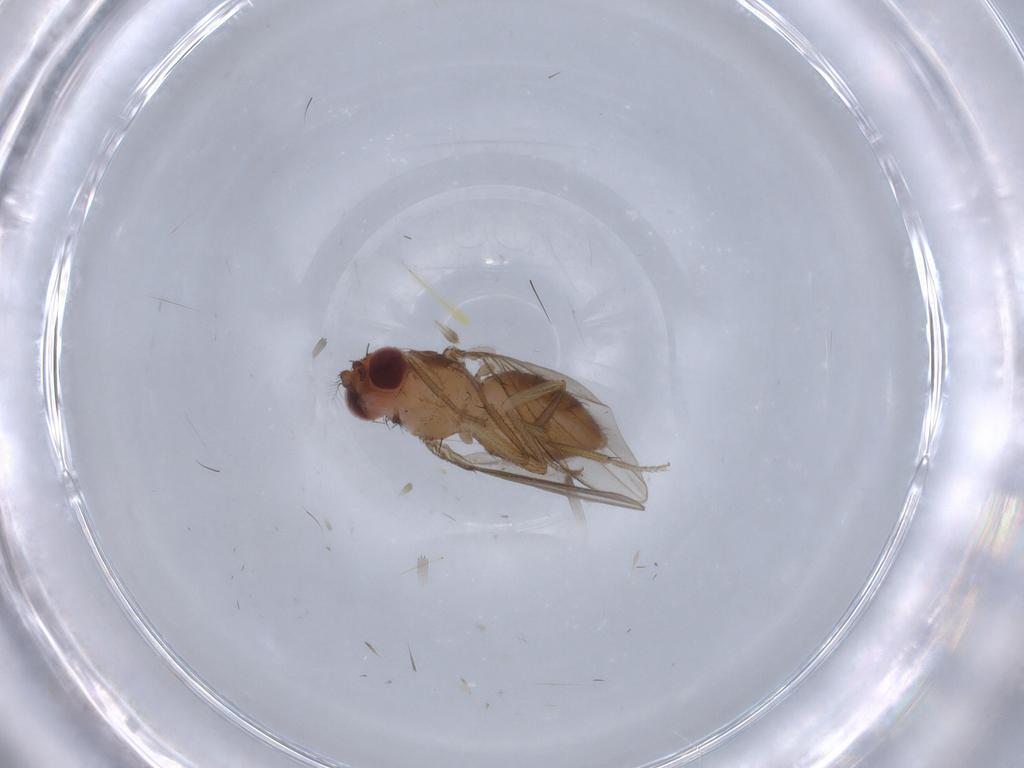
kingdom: Animalia
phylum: Arthropoda
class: Insecta
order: Diptera
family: Drosophilidae
